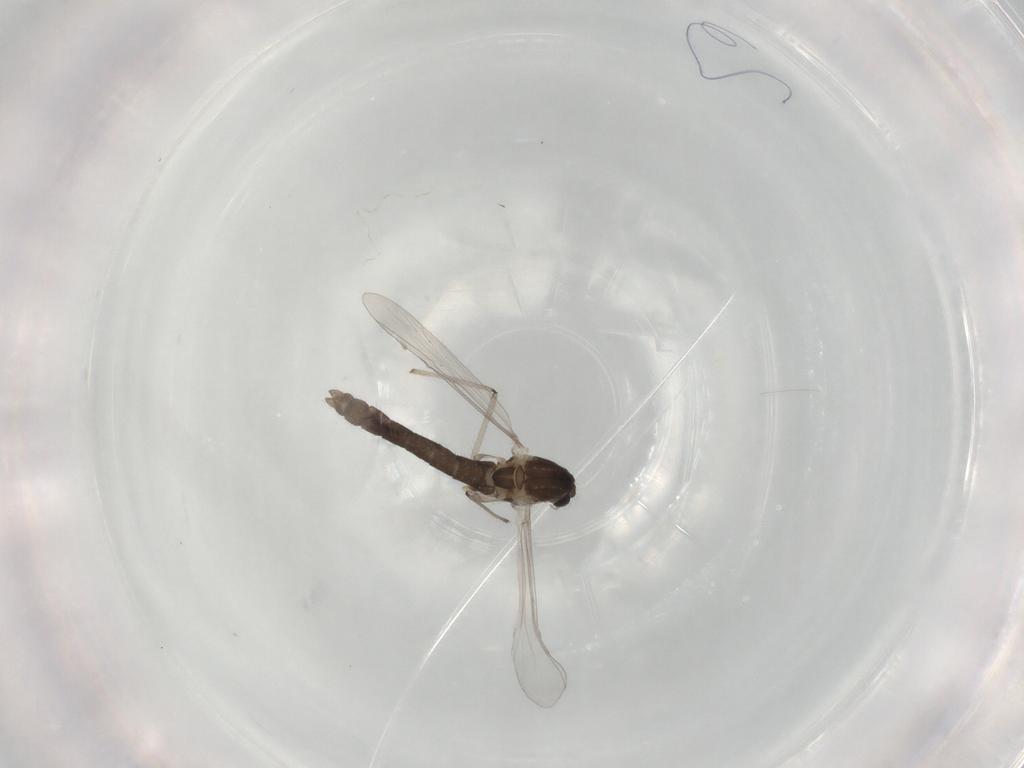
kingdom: Animalia
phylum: Arthropoda
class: Insecta
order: Diptera
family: Chironomidae
